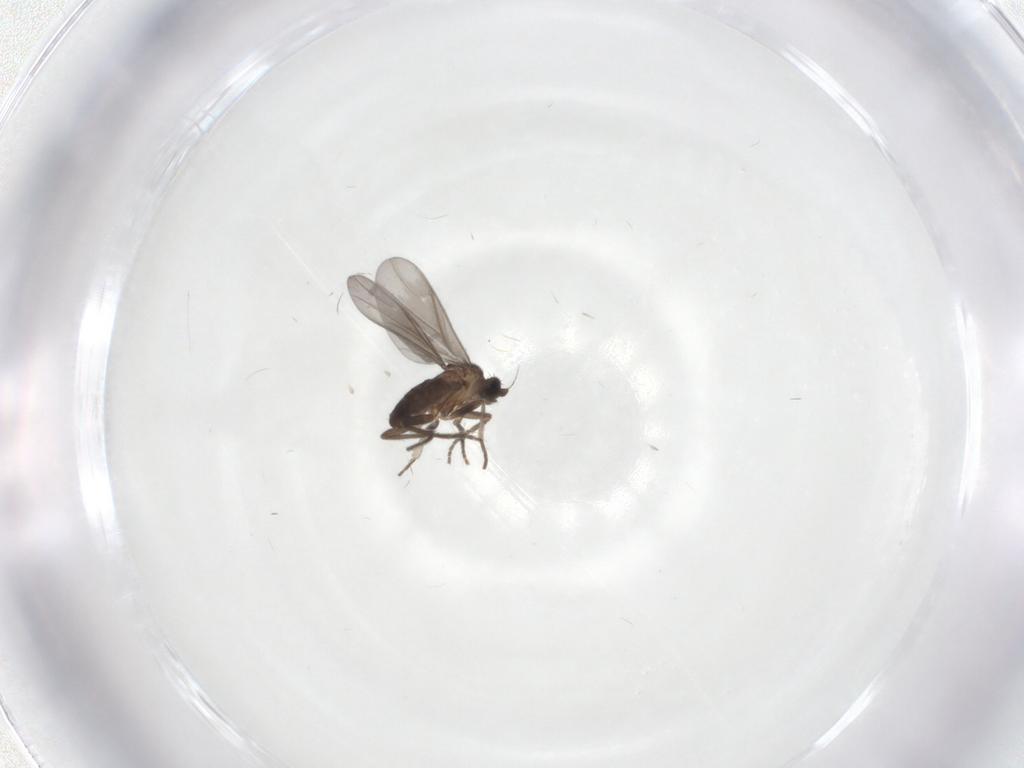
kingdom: Animalia
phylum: Arthropoda
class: Insecta
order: Diptera
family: Phoridae
